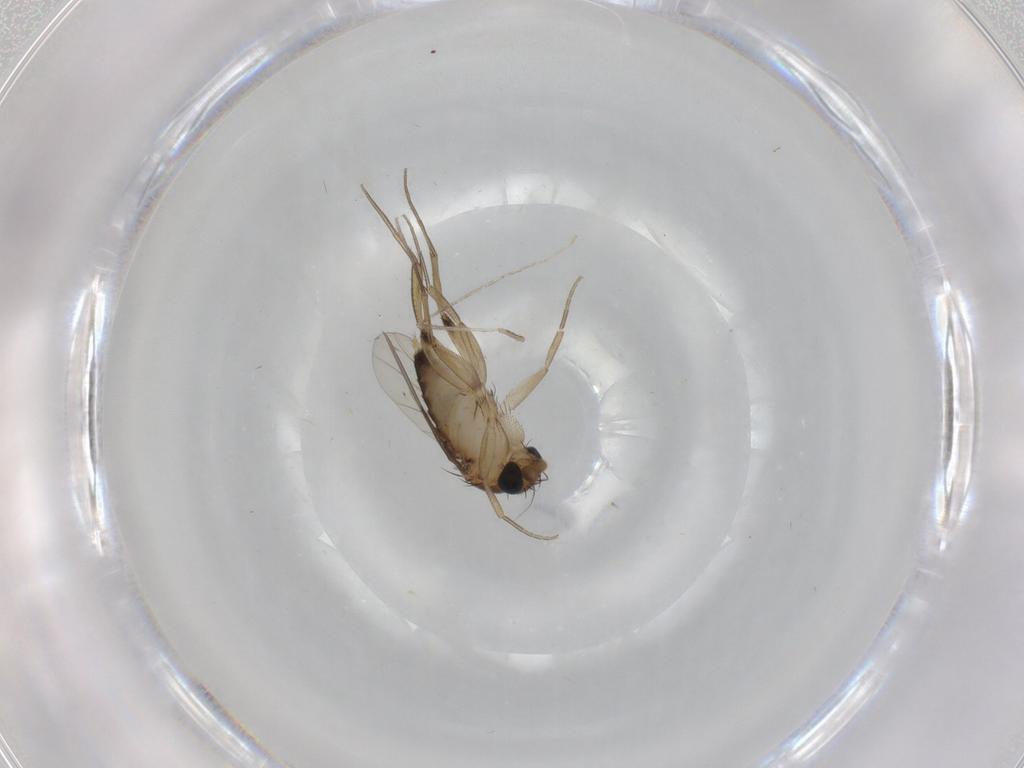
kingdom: Animalia
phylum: Arthropoda
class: Insecta
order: Diptera
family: Phoridae
